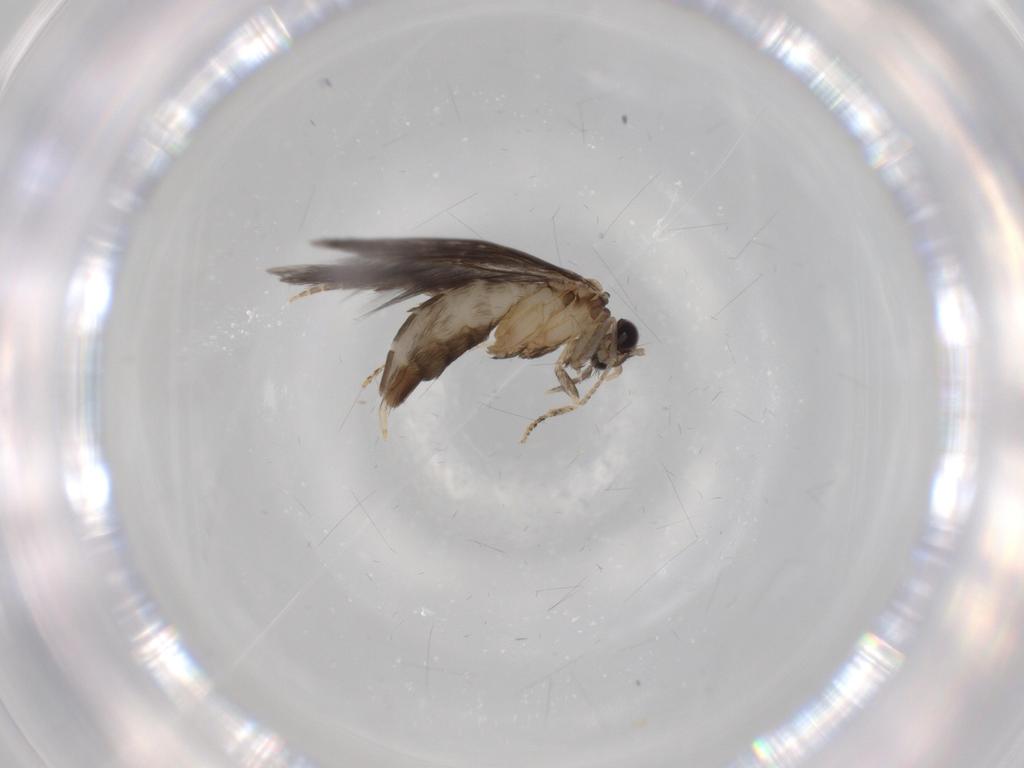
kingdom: Animalia
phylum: Arthropoda
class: Insecta
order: Trichoptera
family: Hydroptilidae
